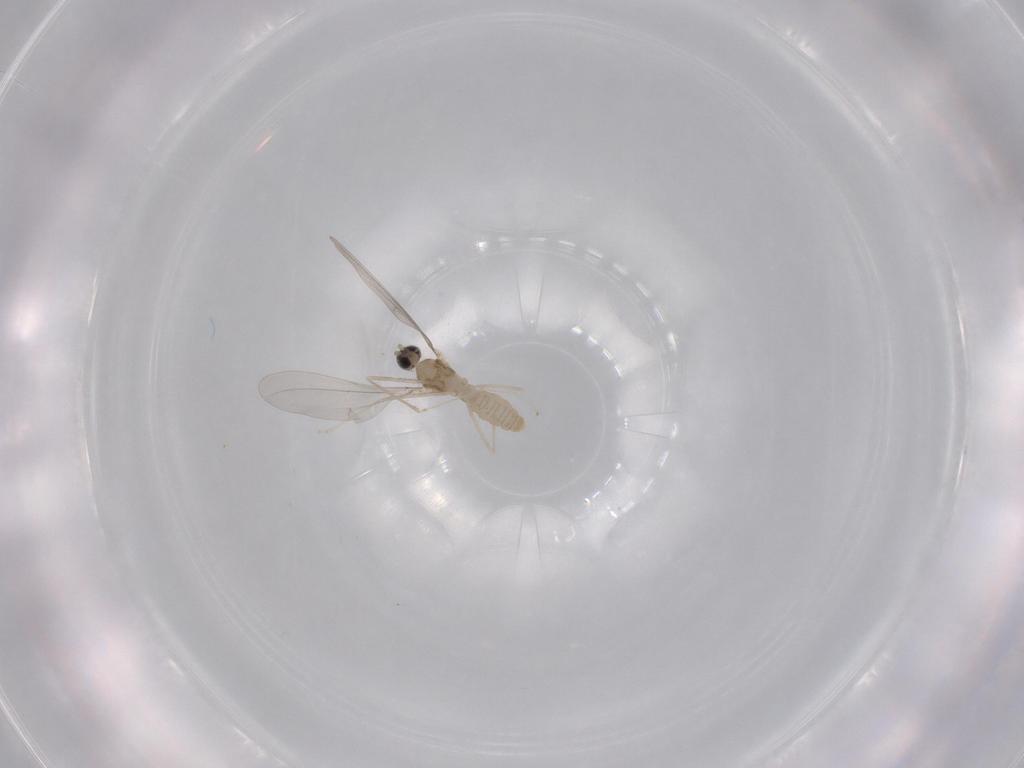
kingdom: Animalia
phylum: Arthropoda
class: Insecta
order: Diptera
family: Cecidomyiidae
